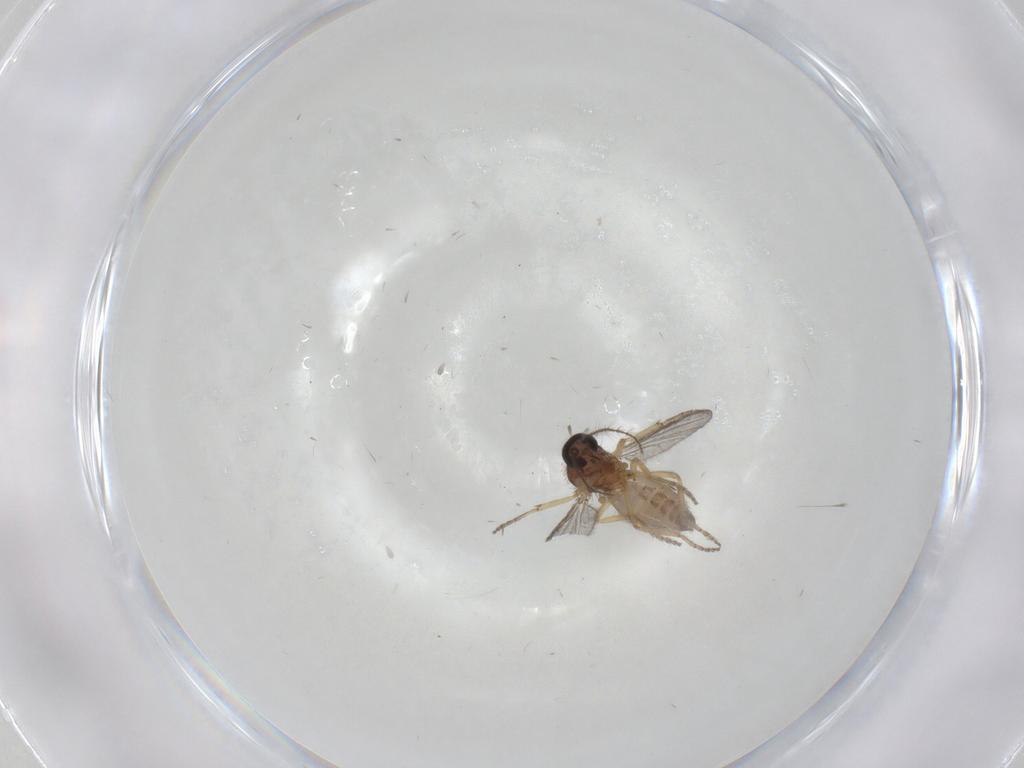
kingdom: Animalia
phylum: Arthropoda
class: Insecta
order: Diptera
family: Ceratopogonidae
